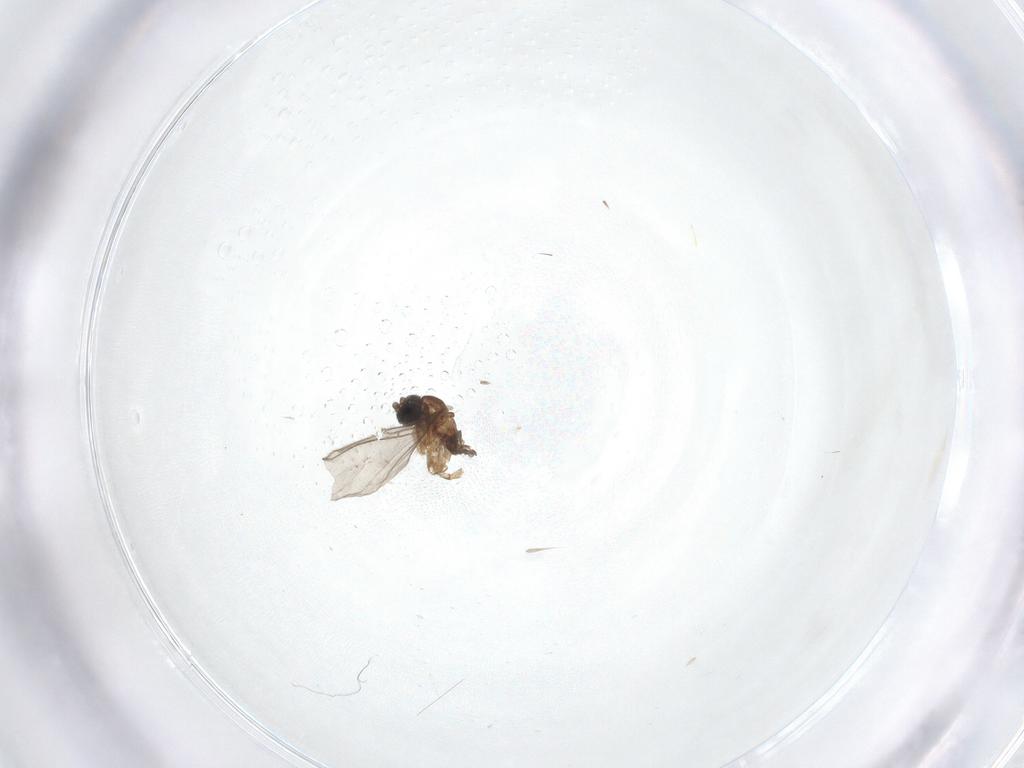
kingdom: Animalia
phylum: Arthropoda
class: Insecta
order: Diptera
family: Sciaridae
